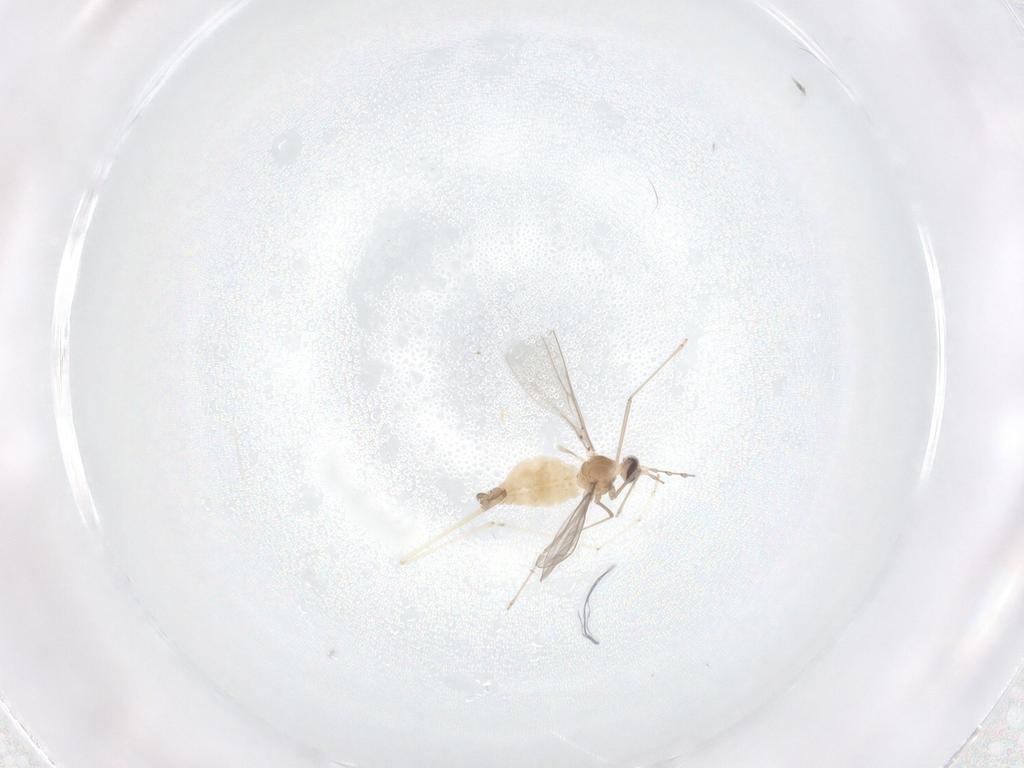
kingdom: Animalia
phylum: Arthropoda
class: Insecta
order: Diptera
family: Cecidomyiidae
